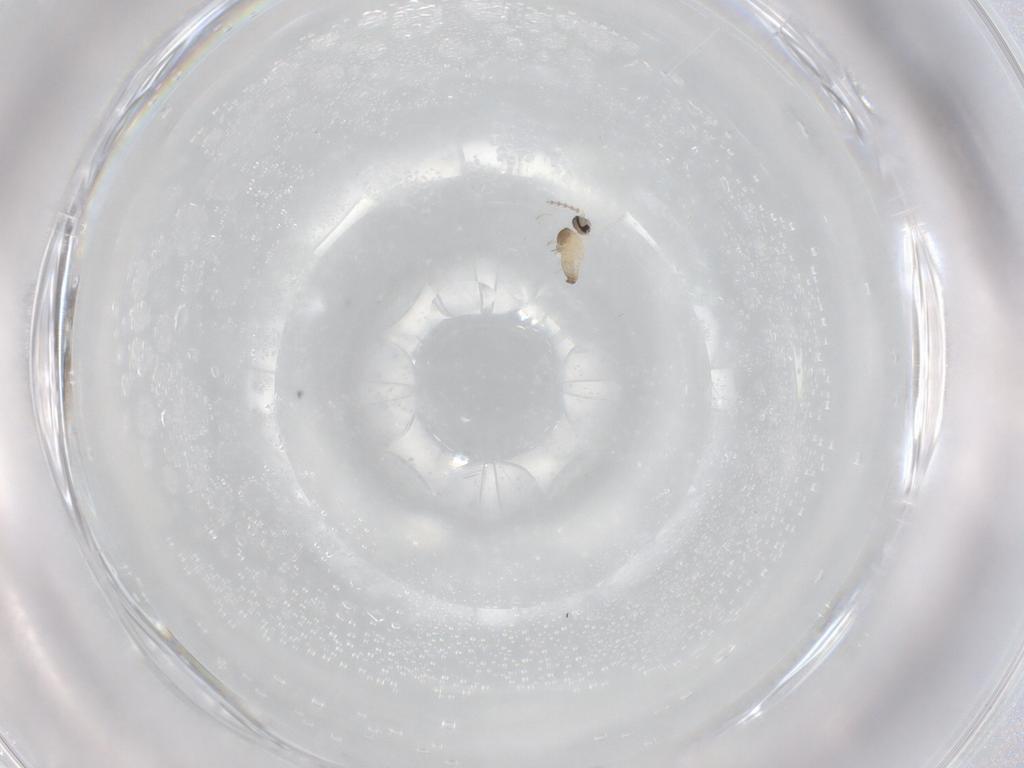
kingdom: Animalia
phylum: Arthropoda
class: Insecta
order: Diptera
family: Cecidomyiidae
